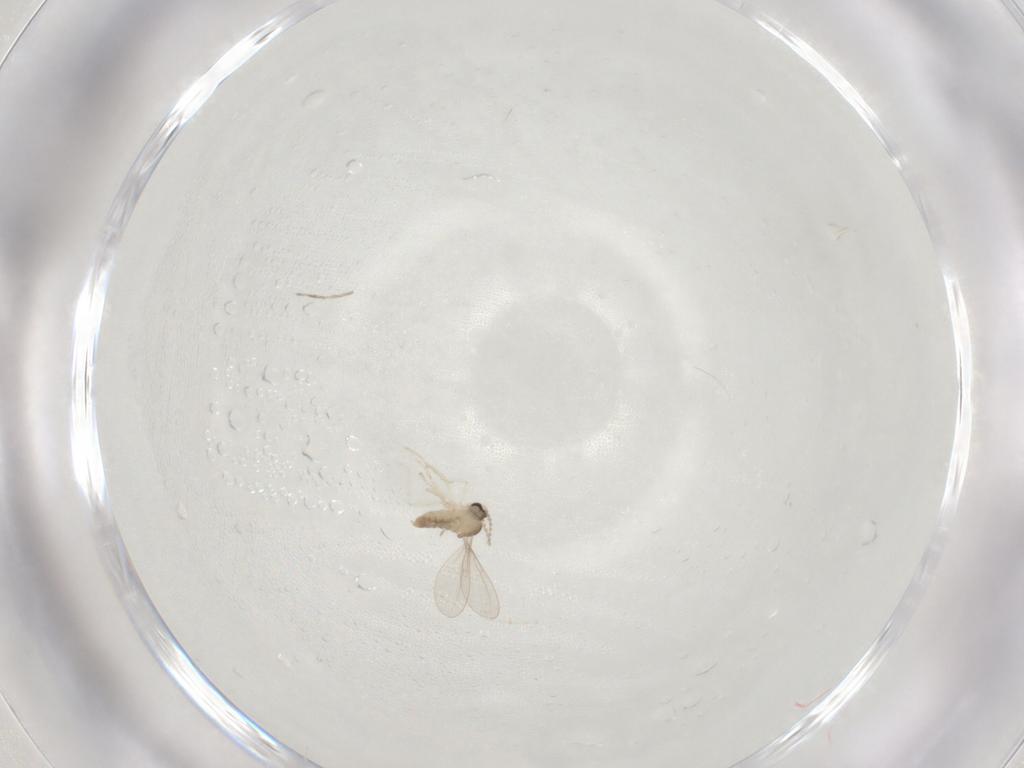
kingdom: Animalia
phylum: Arthropoda
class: Insecta
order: Diptera
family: Cecidomyiidae
